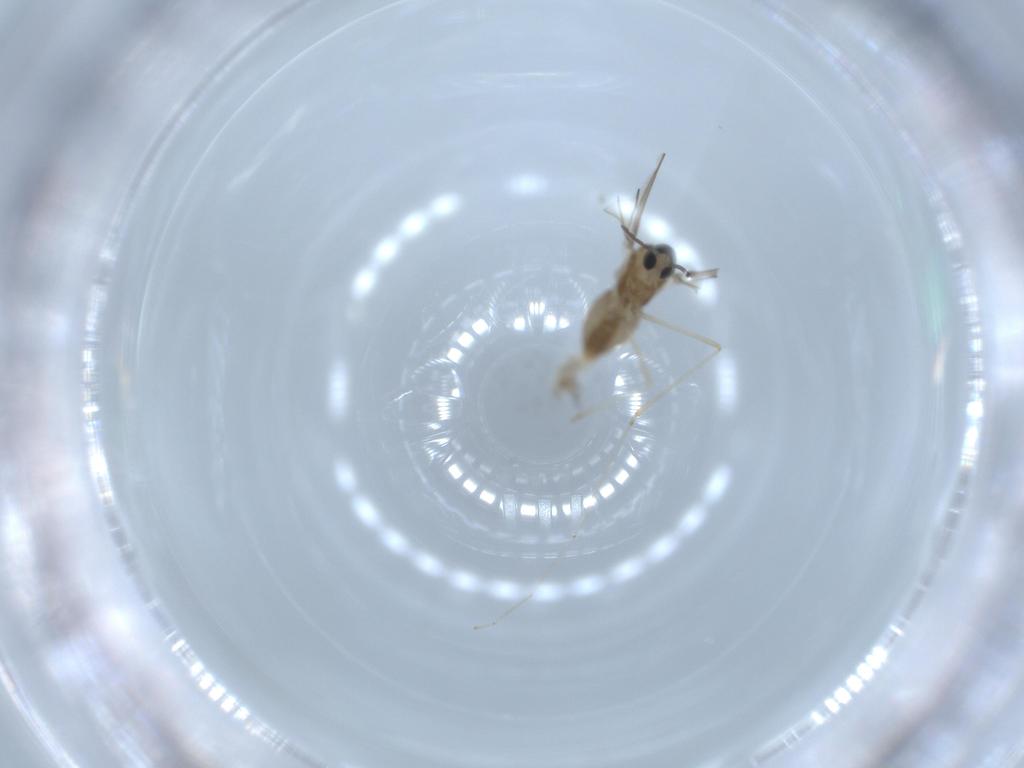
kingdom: Animalia
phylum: Arthropoda
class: Insecta
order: Diptera
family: Cecidomyiidae
